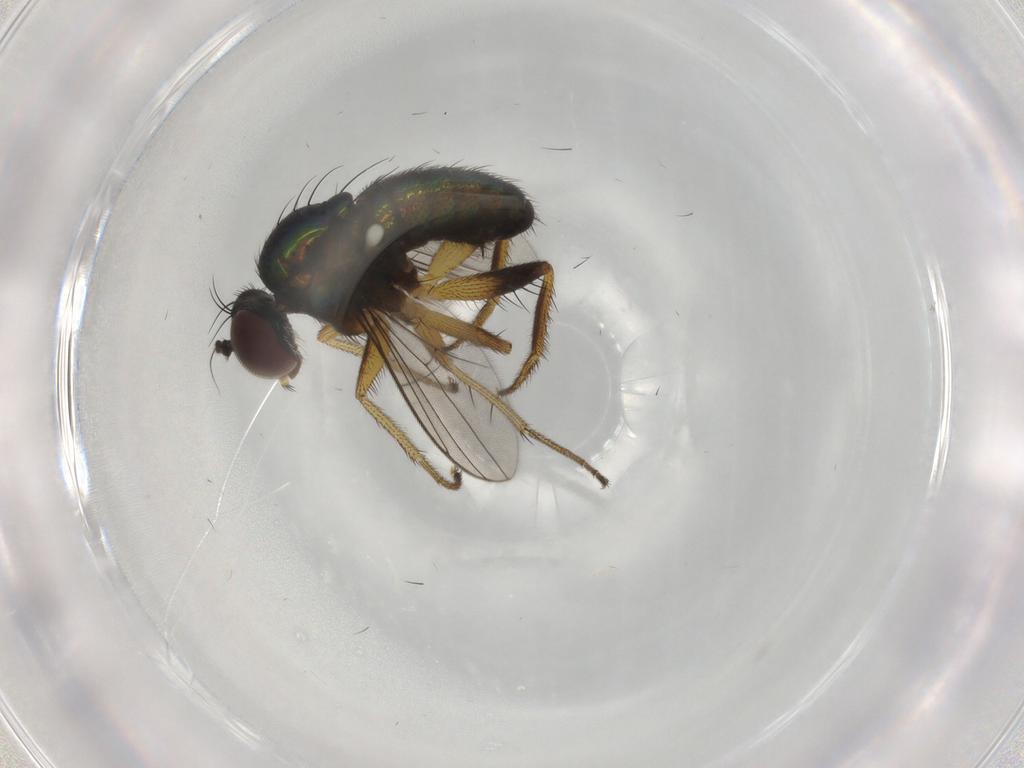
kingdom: Animalia
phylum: Arthropoda
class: Insecta
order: Diptera
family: Dolichopodidae
